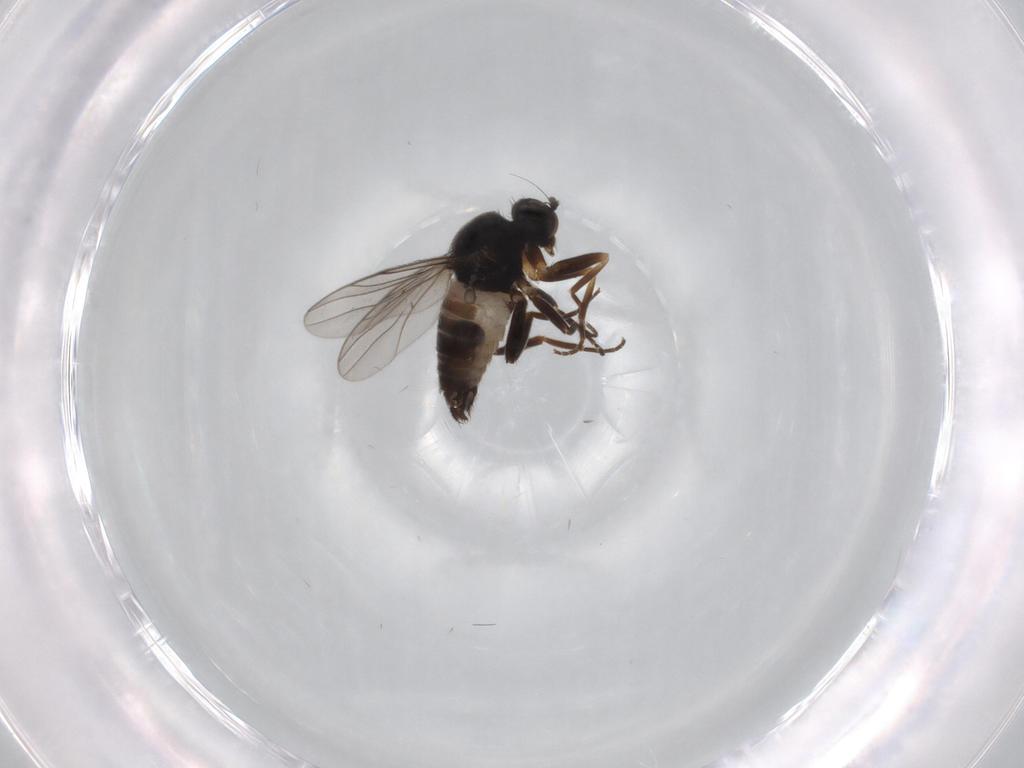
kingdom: Animalia
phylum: Arthropoda
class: Insecta
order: Diptera
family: Hybotidae
